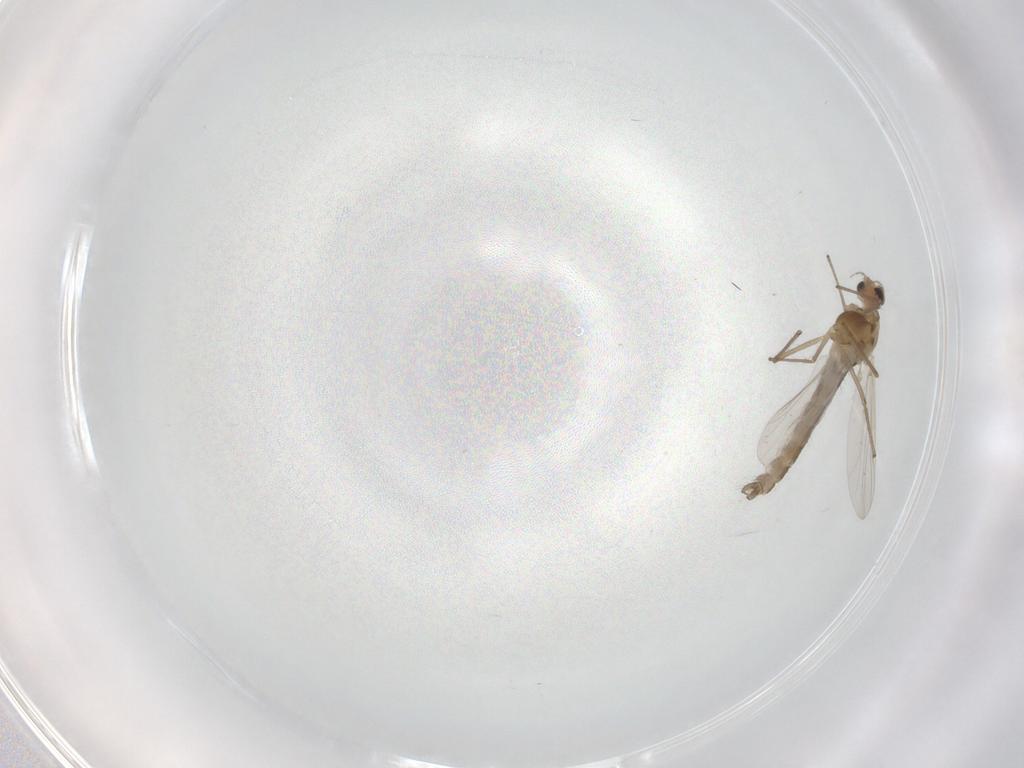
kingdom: Animalia
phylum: Arthropoda
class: Insecta
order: Diptera
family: Chironomidae
